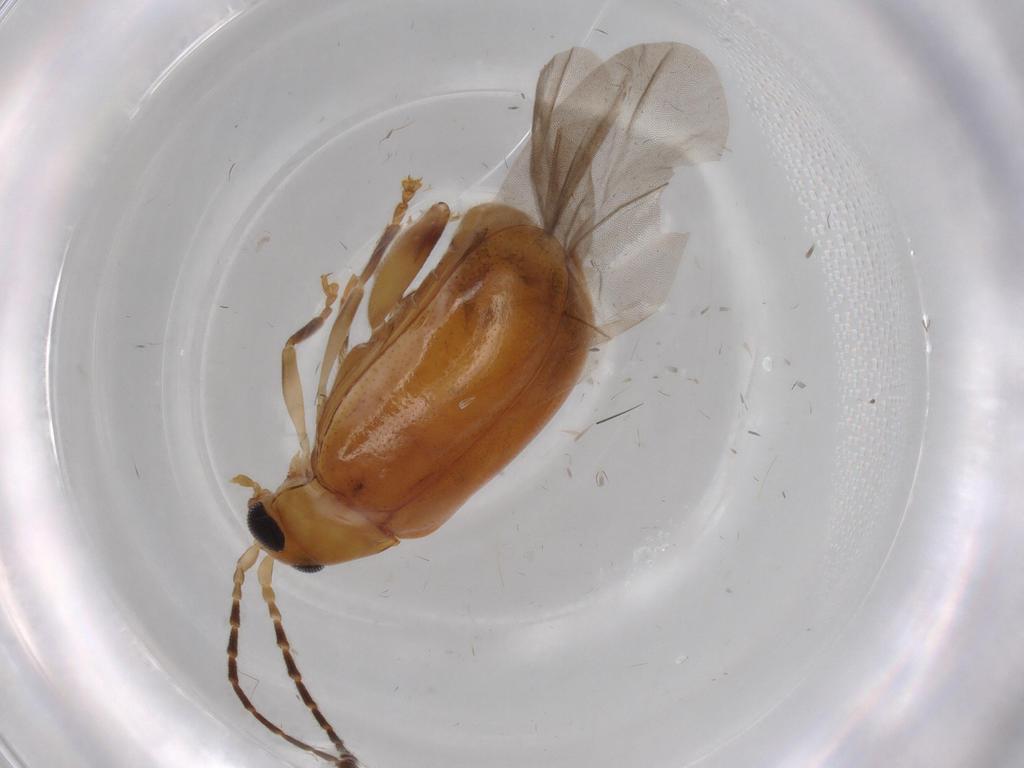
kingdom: Animalia
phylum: Arthropoda
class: Insecta
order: Coleoptera
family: Chrysomelidae
